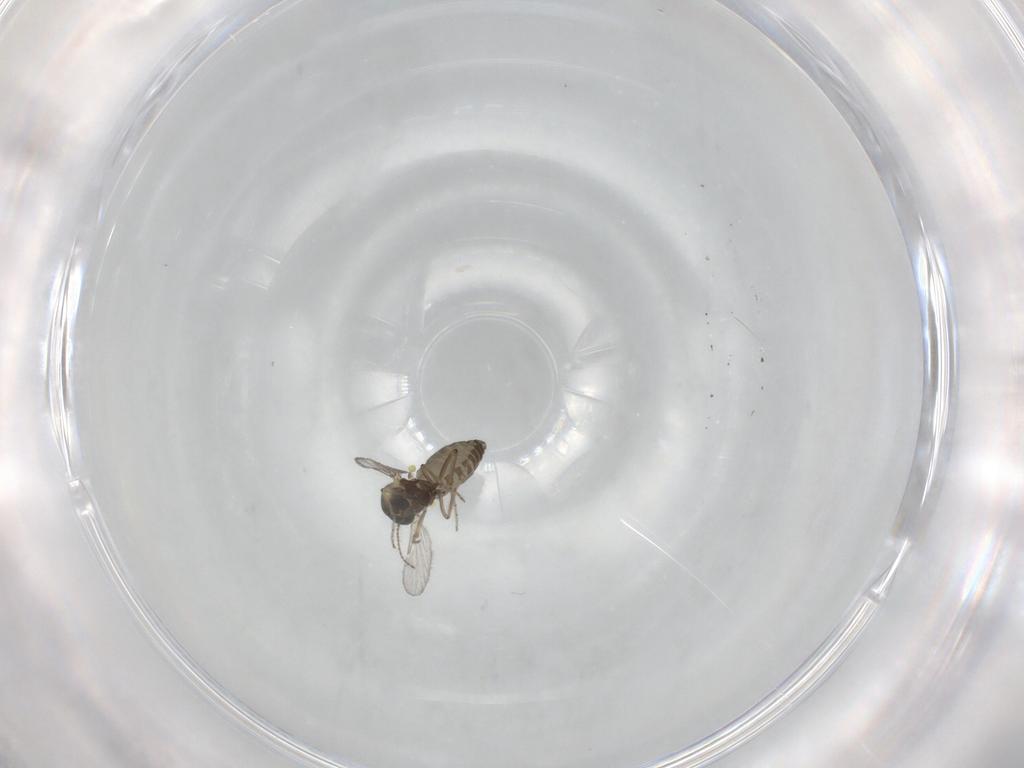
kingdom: Animalia
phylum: Arthropoda
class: Insecta
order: Diptera
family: Ceratopogonidae
